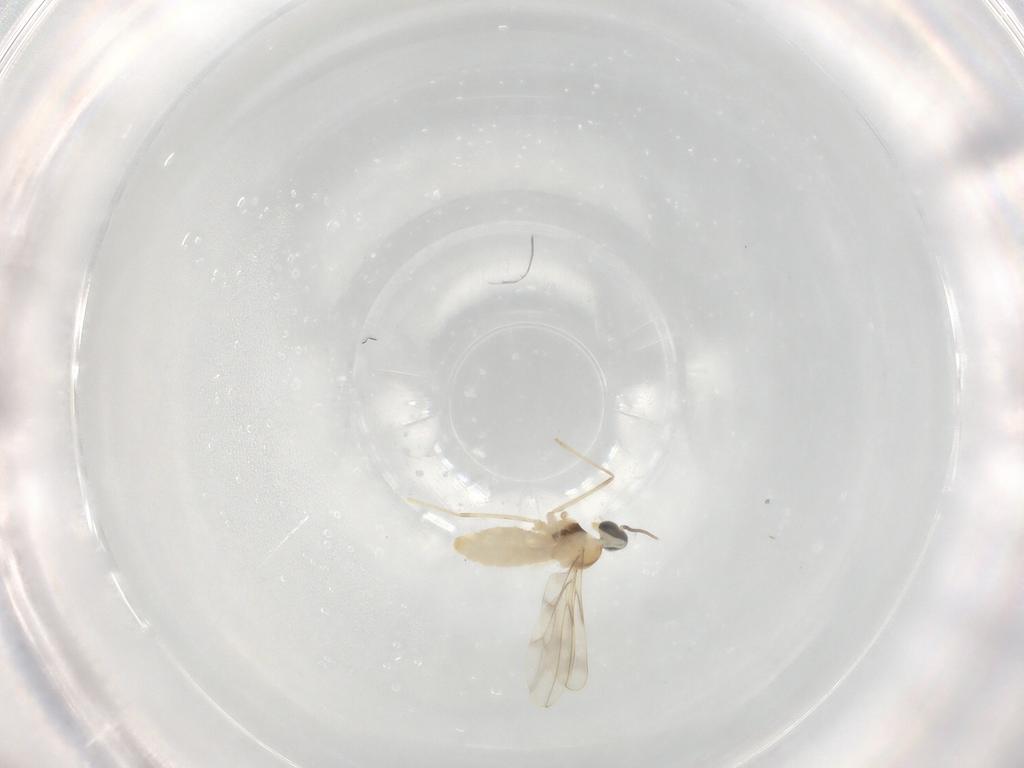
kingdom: Animalia
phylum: Arthropoda
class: Insecta
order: Diptera
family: Cecidomyiidae
